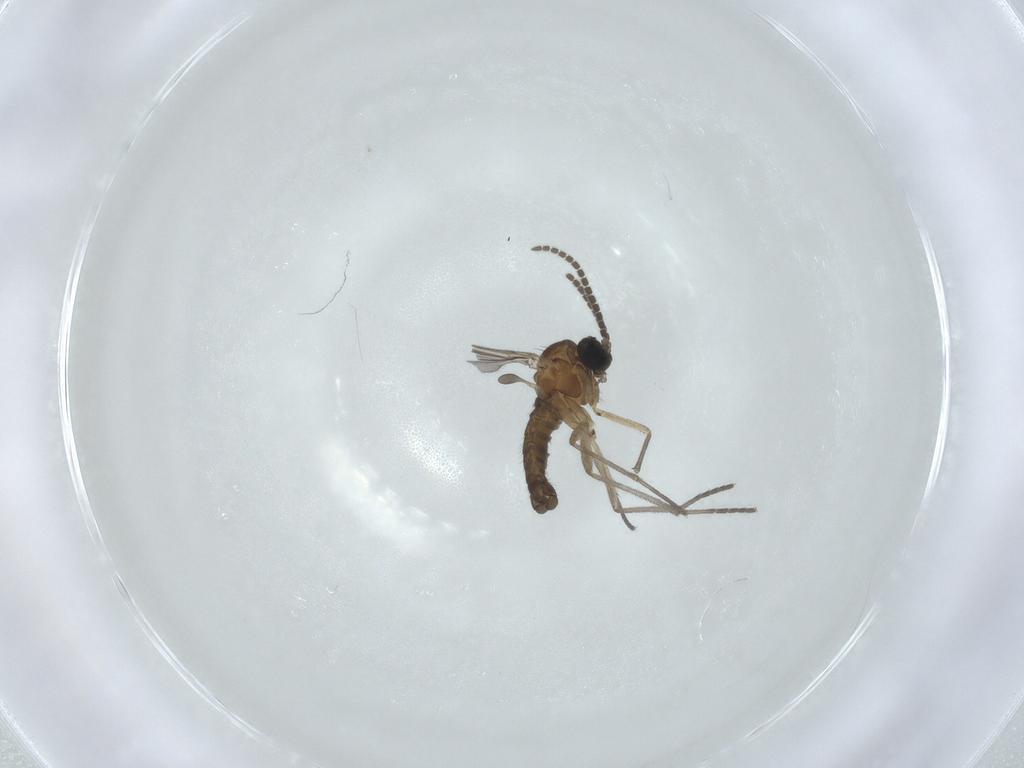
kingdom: Animalia
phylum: Arthropoda
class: Insecta
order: Diptera
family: Sciaridae
